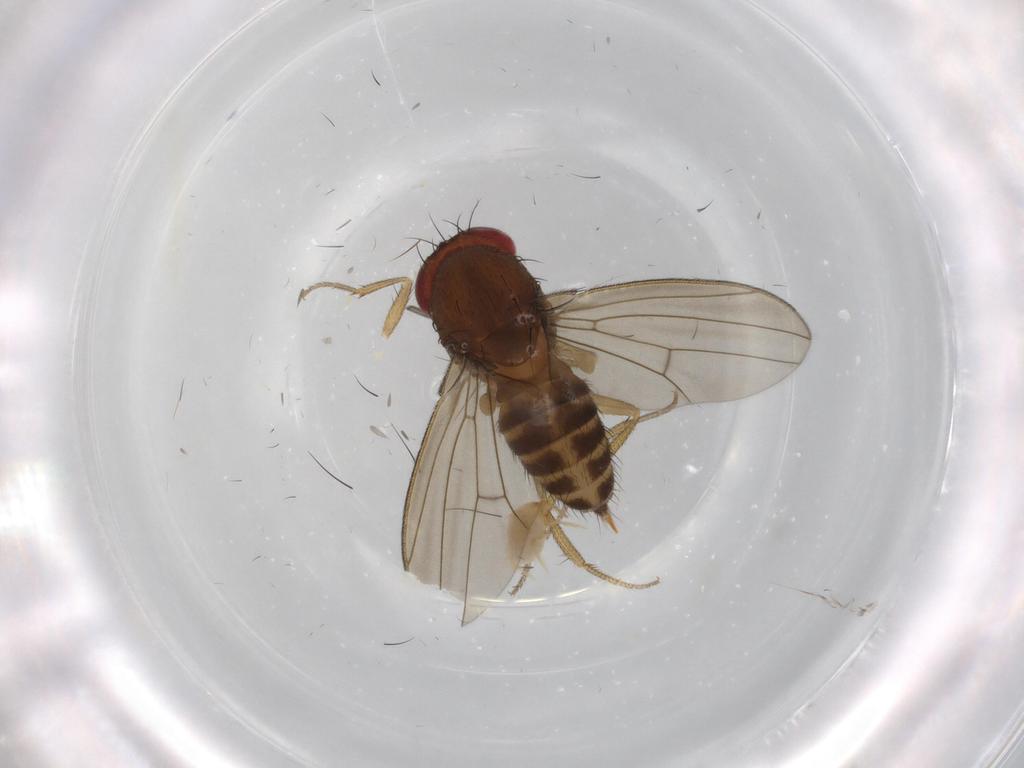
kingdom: Animalia
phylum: Arthropoda
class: Insecta
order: Diptera
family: Drosophilidae
